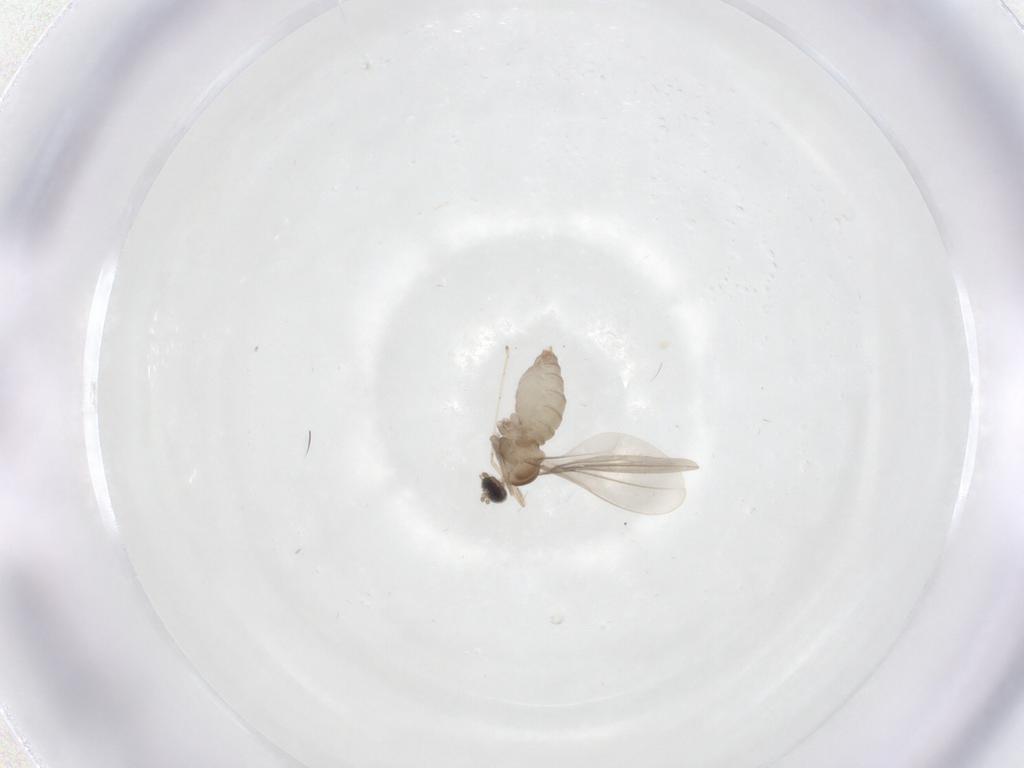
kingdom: Animalia
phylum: Arthropoda
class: Insecta
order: Diptera
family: Cecidomyiidae
